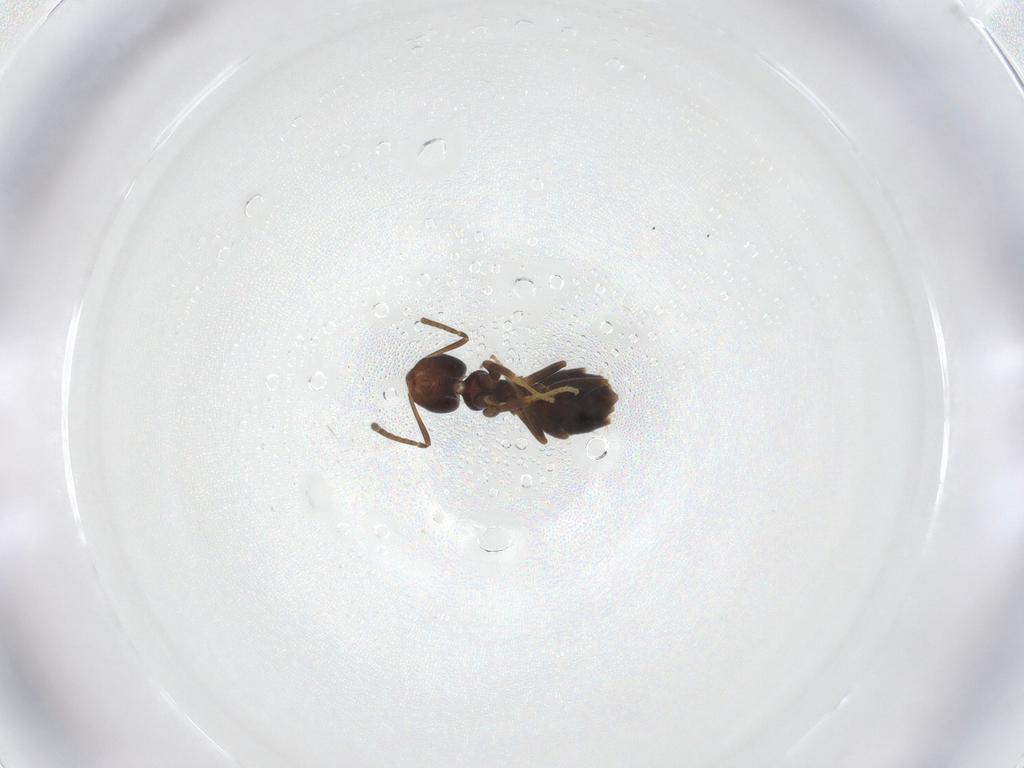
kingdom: Animalia
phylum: Arthropoda
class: Insecta
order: Hymenoptera
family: Formicidae
